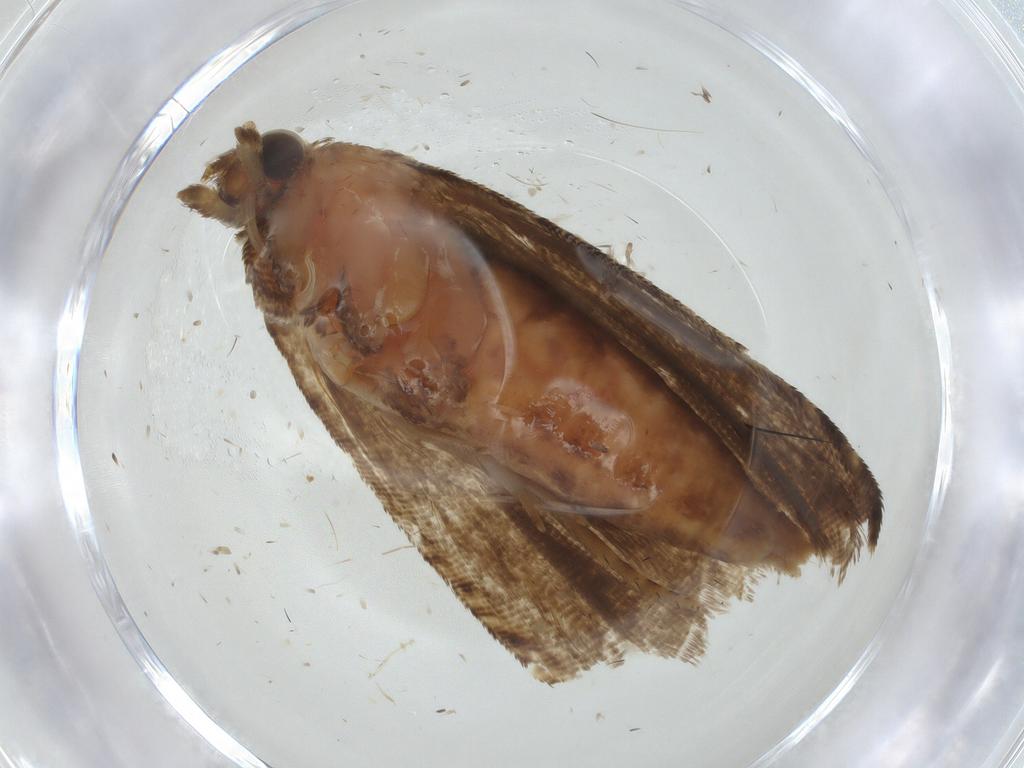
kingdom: Animalia
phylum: Arthropoda
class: Insecta
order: Lepidoptera
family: Tortricidae
